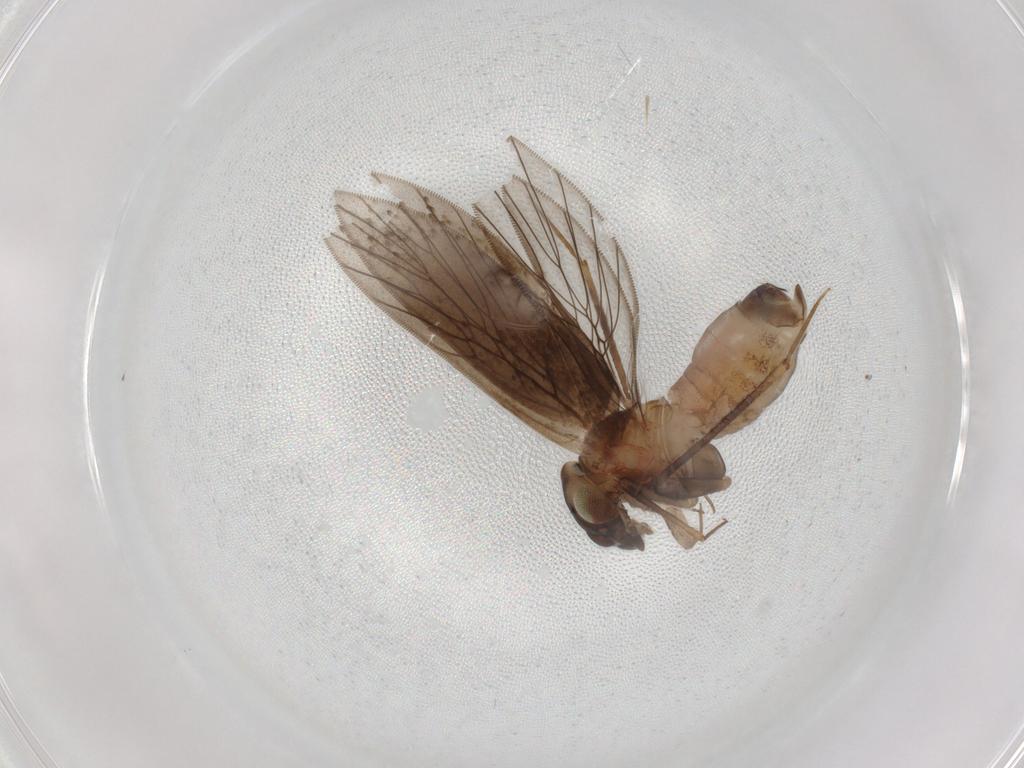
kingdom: Animalia
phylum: Arthropoda
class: Insecta
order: Psocodea
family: Lepidopsocidae
